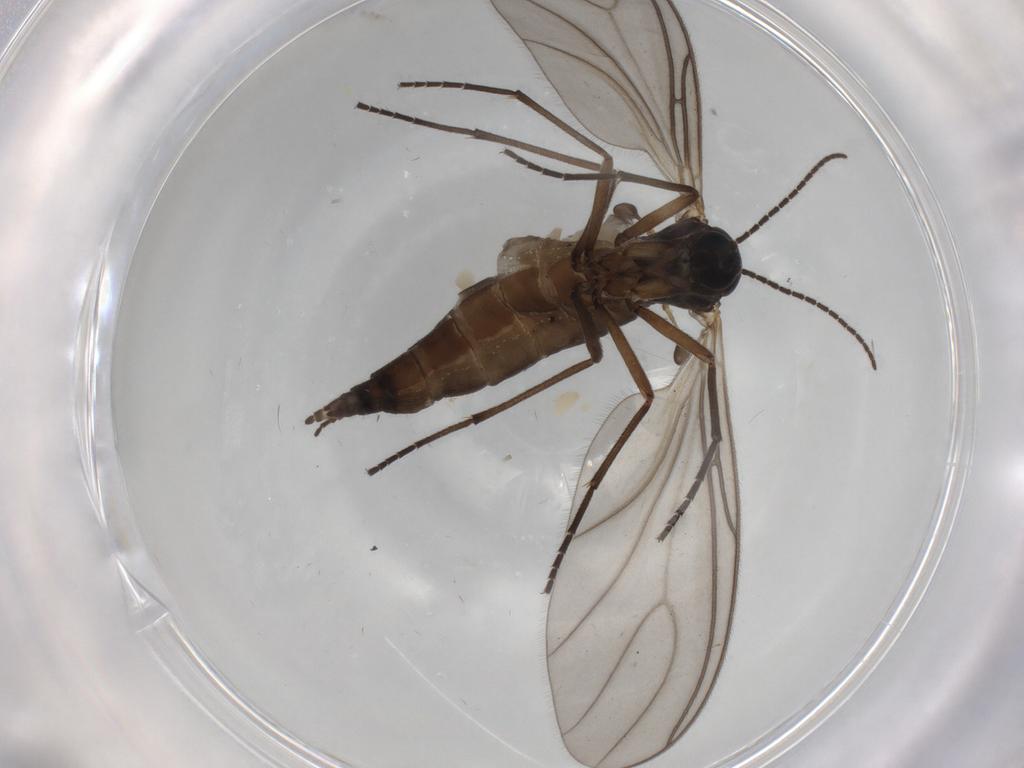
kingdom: Animalia
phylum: Arthropoda
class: Insecta
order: Diptera
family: Sciaridae
